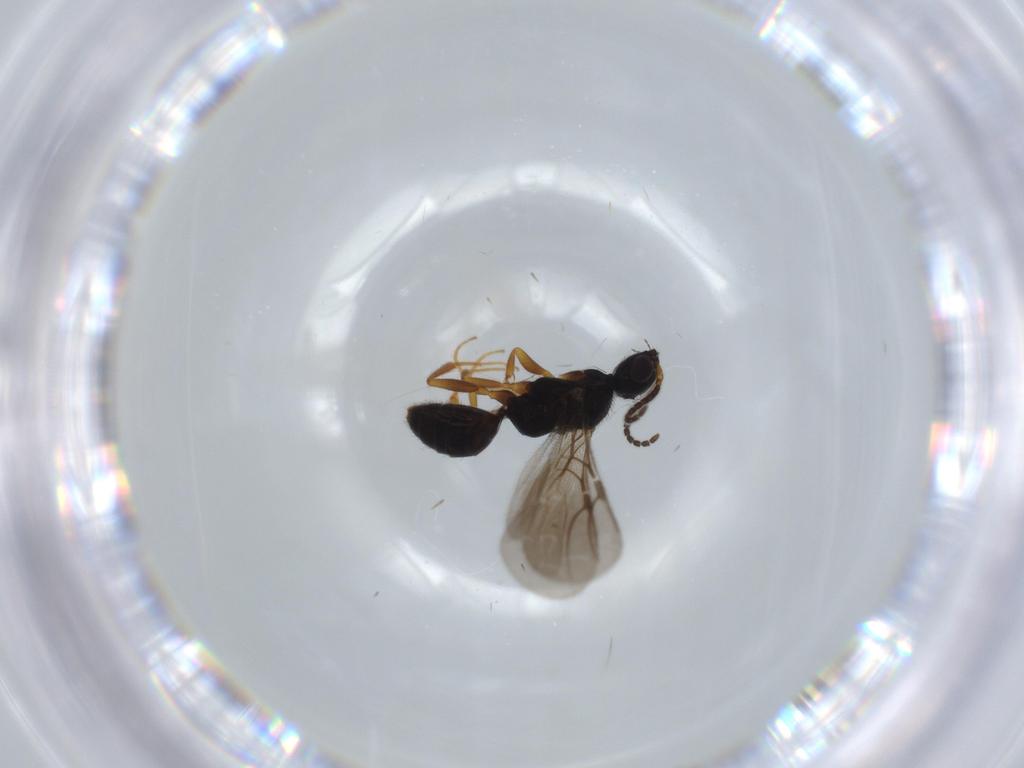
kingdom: Animalia
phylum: Arthropoda
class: Insecta
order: Hymenoptera
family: Bethylidae
